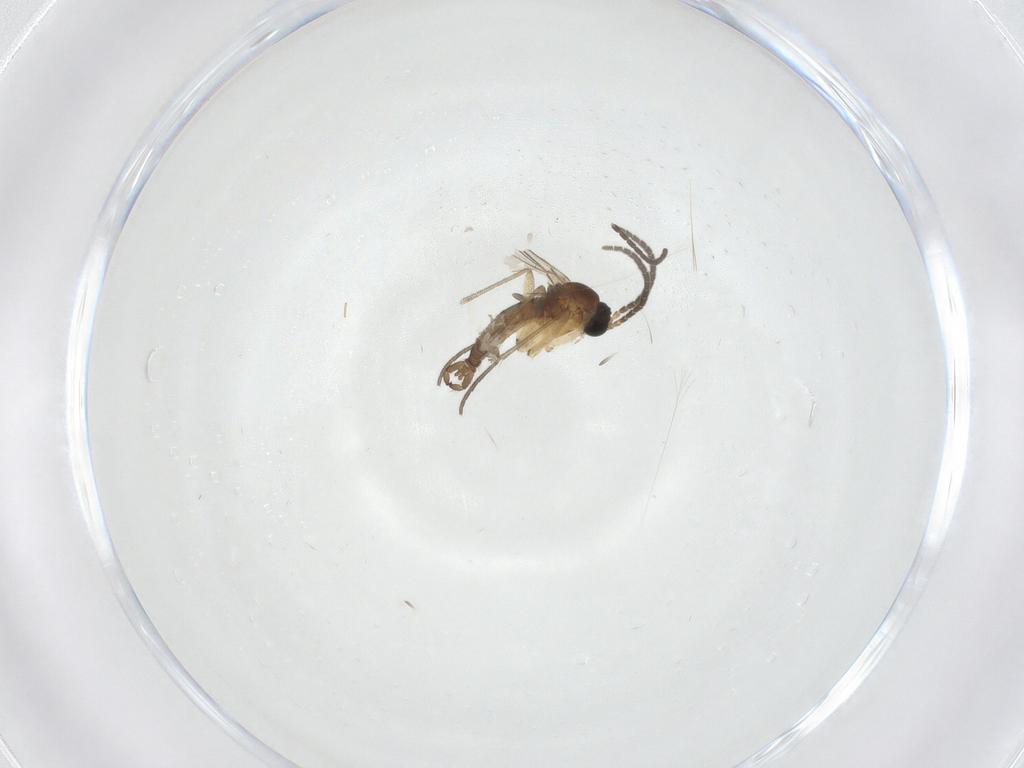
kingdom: Animalia
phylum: Arthropoda
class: Insecta
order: Diptera
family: Sciaridae
